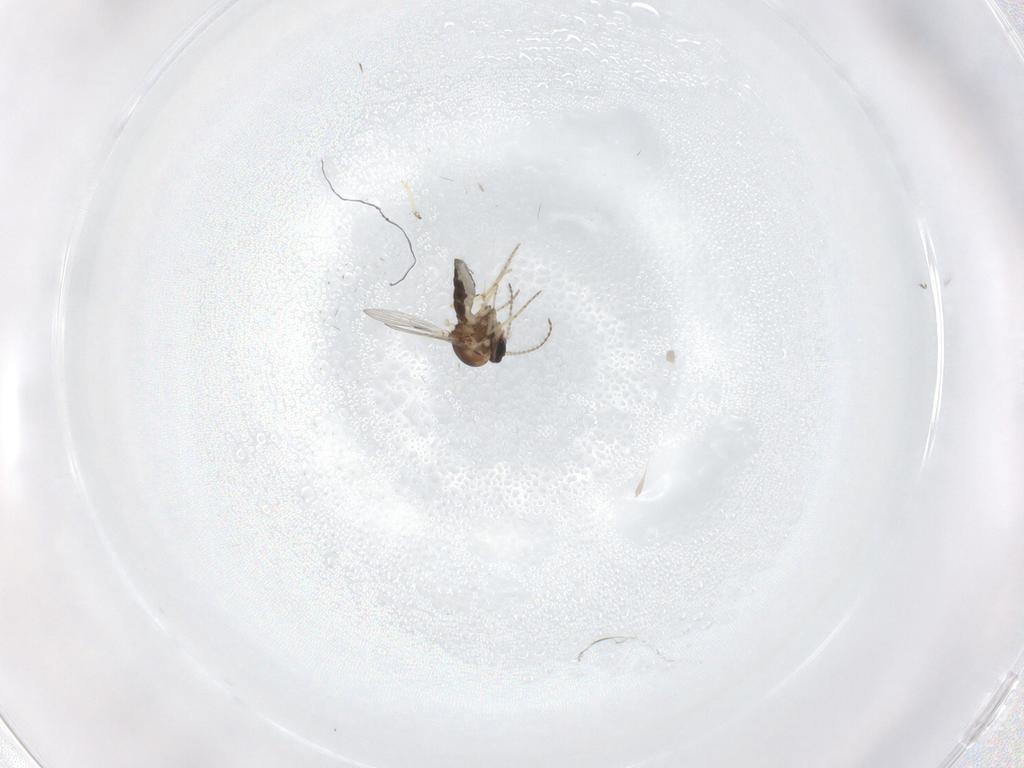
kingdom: Animalia
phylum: Arthropoda
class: Insecta
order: Diptera
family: Ceratopogonidae
